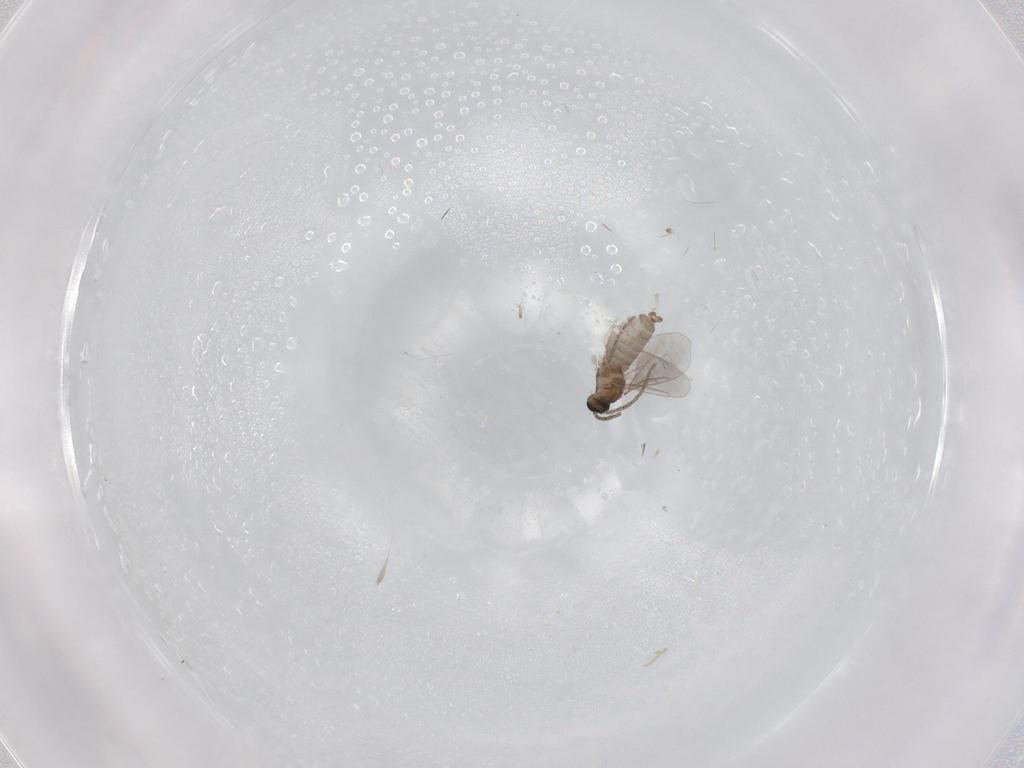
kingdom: Animalia
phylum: Arthropoda
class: Insecta
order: Diptera
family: Cecidomyiidae
